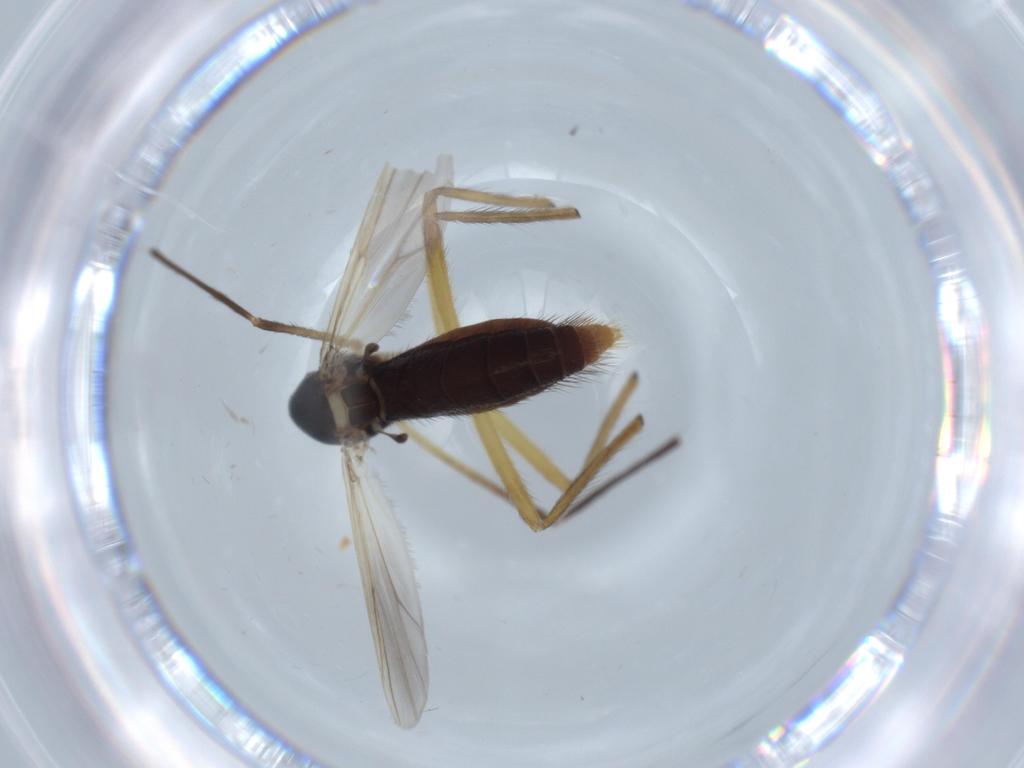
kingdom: Animalia
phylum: Arthropoda
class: Insecta
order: Diptera
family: Chironomidae
